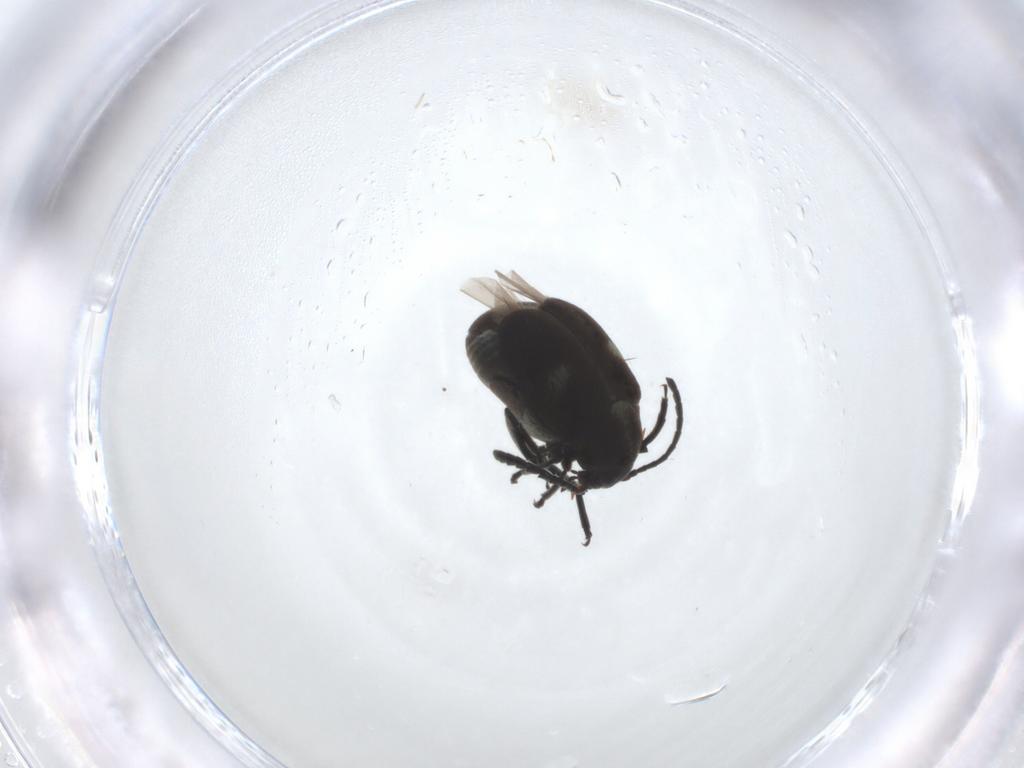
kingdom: Animalia
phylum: Arthropoda
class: Insecta
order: Coleoptera
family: Chrysomelidae
